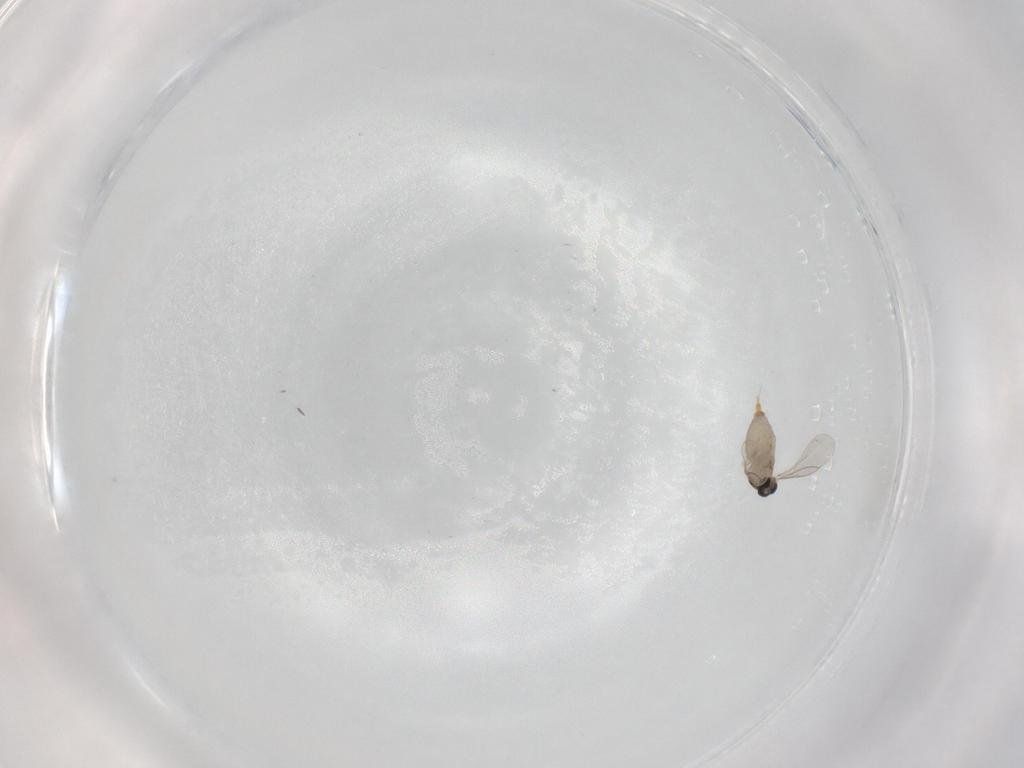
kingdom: Animalia
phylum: Arthropoda
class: Insecta
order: Diptera
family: Cecidomyiidae
